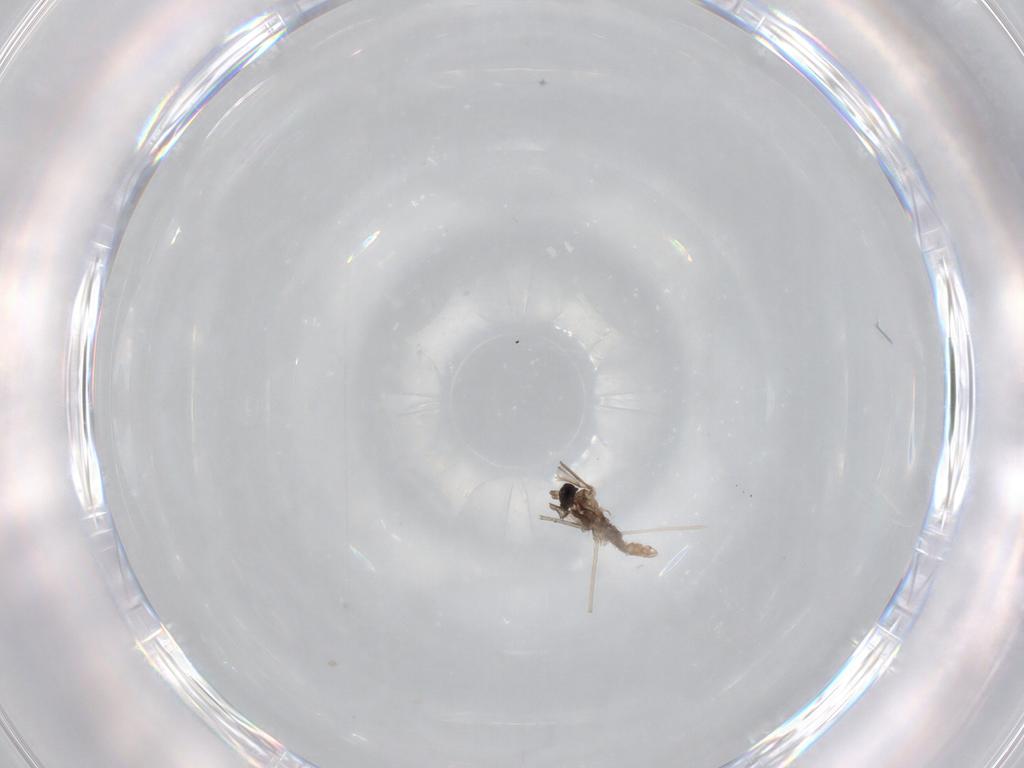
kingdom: Animalia
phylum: Arthropoda
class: Insecta
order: Diptera
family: Cecidomyiidae
